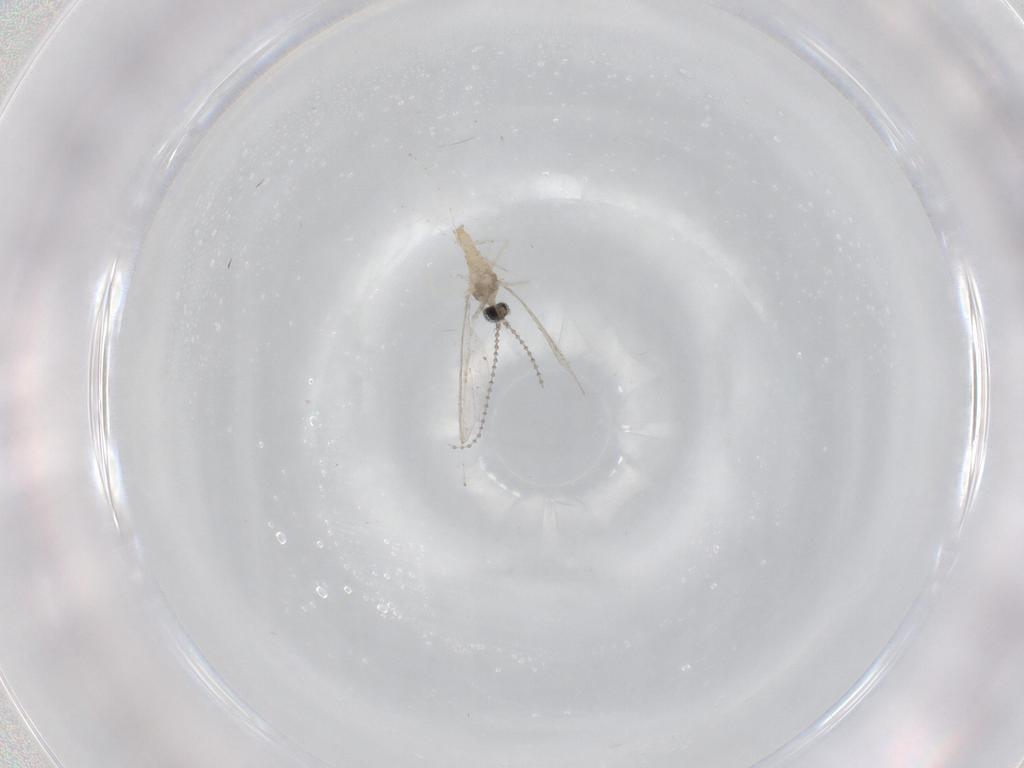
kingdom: Animalia
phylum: Arthropoda
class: Insecta
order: Diptera
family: Cecidomyiidae
